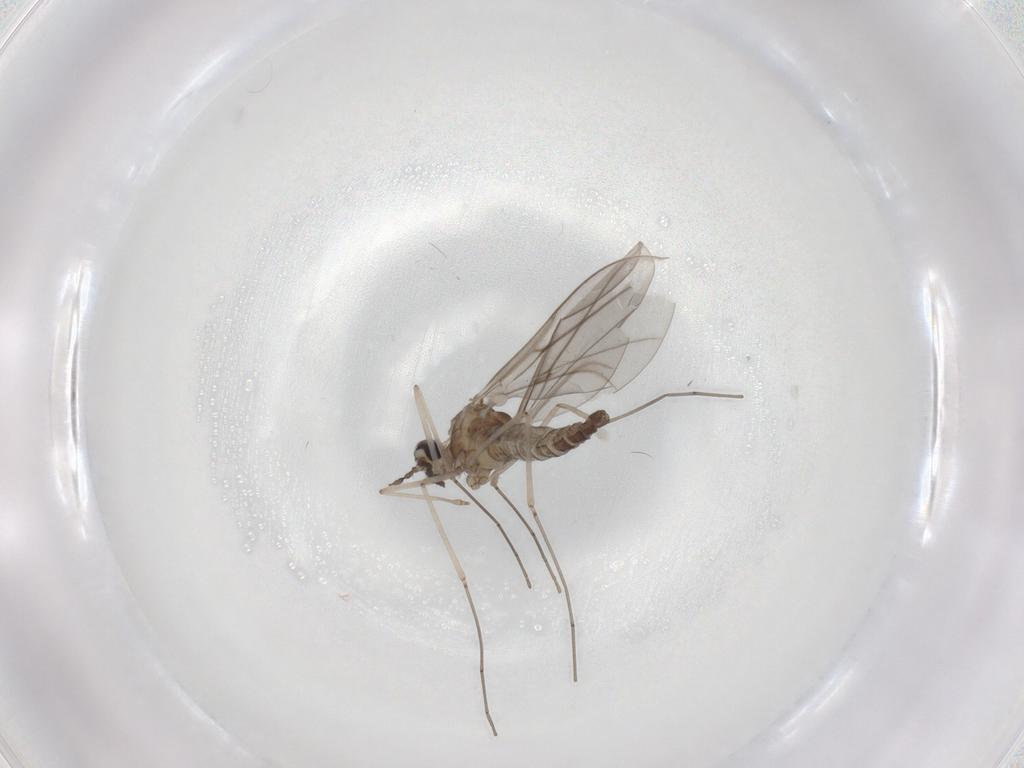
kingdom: Animalia
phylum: Arthropoda
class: Insecta
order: Diptera
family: Cecidomyiidae
